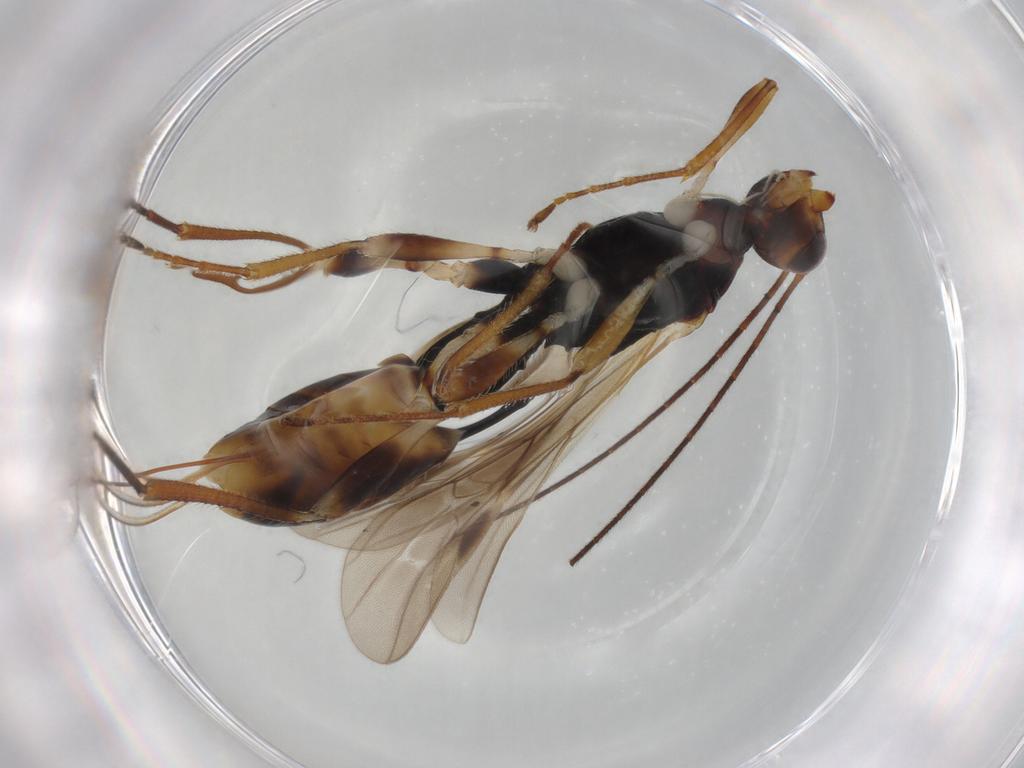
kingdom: Animalia
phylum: Arthropoda
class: Insecta
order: Hymenoptera
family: Braconidae
